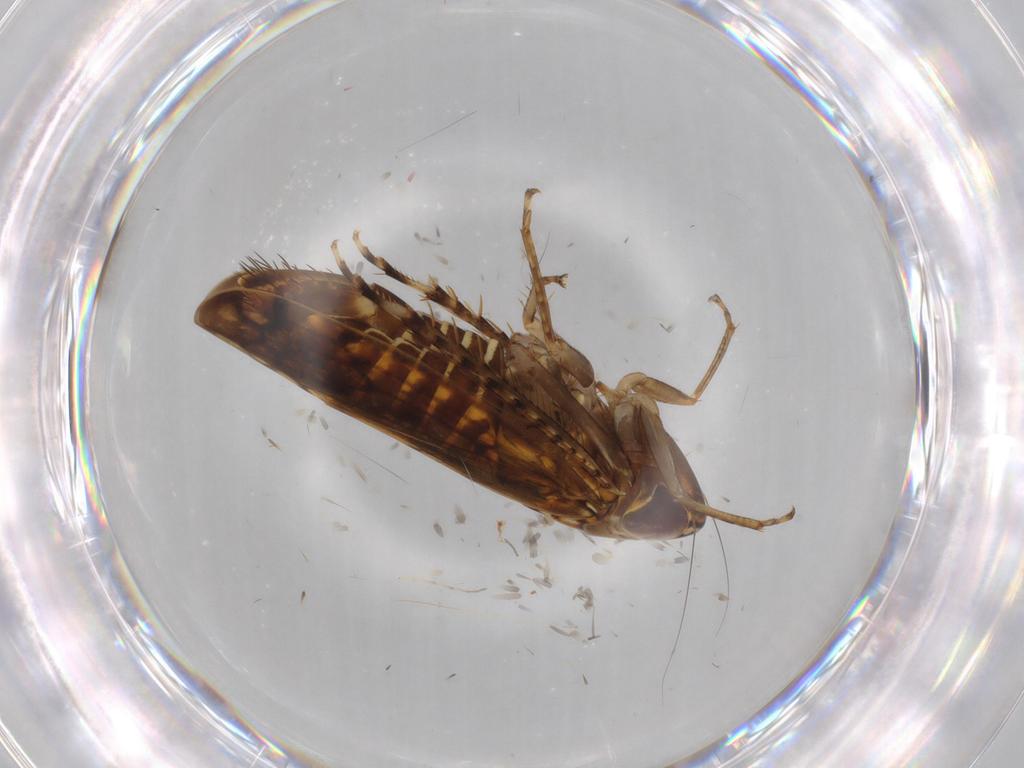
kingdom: Animalia
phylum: Arthropoda
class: Insecta
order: Hemiptera
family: Cicadellidae
